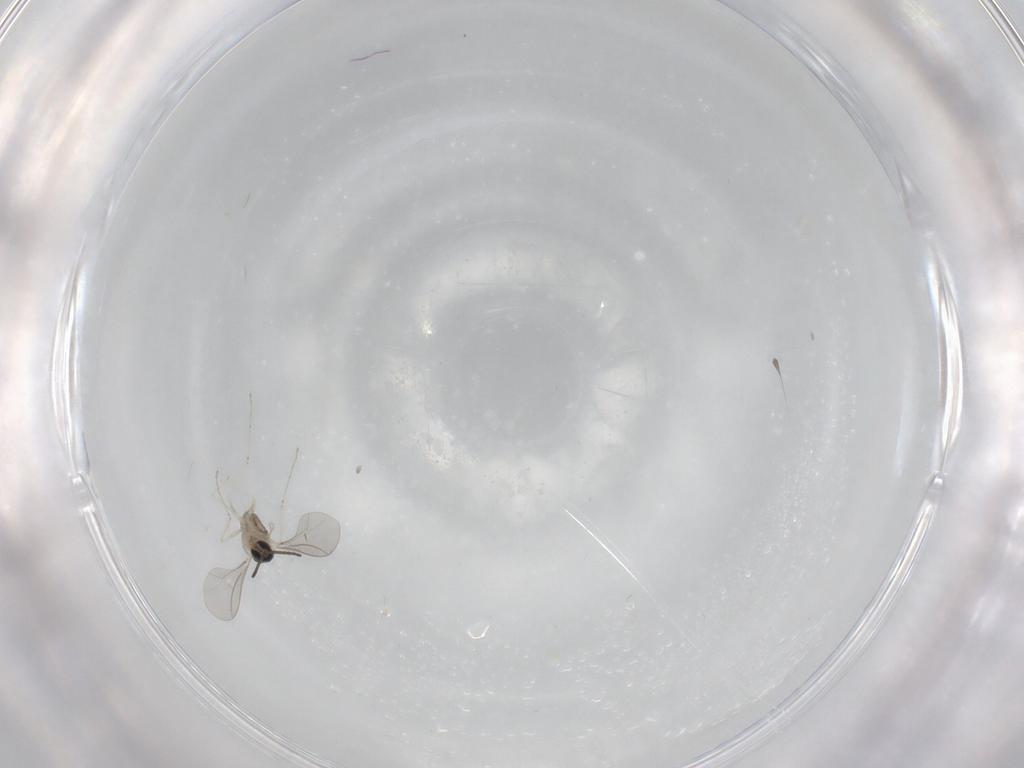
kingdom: Animalia
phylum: Arthropoda
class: Insecta
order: Diptera
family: Cecidomyiidae
